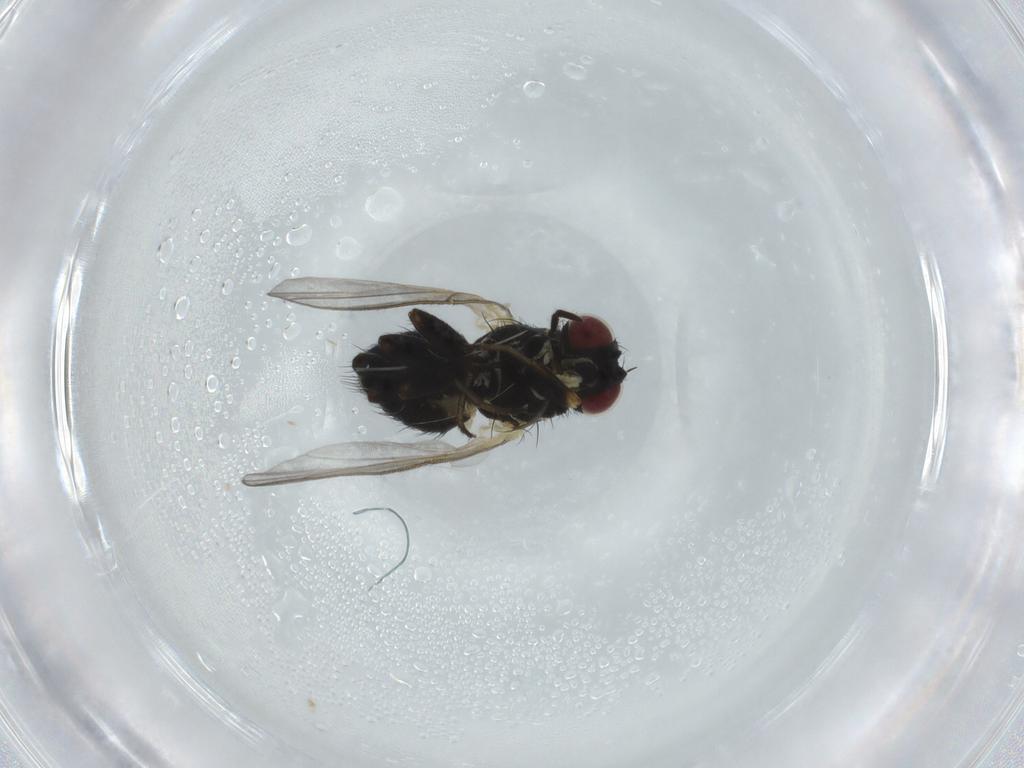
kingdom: Animalia
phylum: Arthropoda
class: Insecta
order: Diptera
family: Agromyzidae
